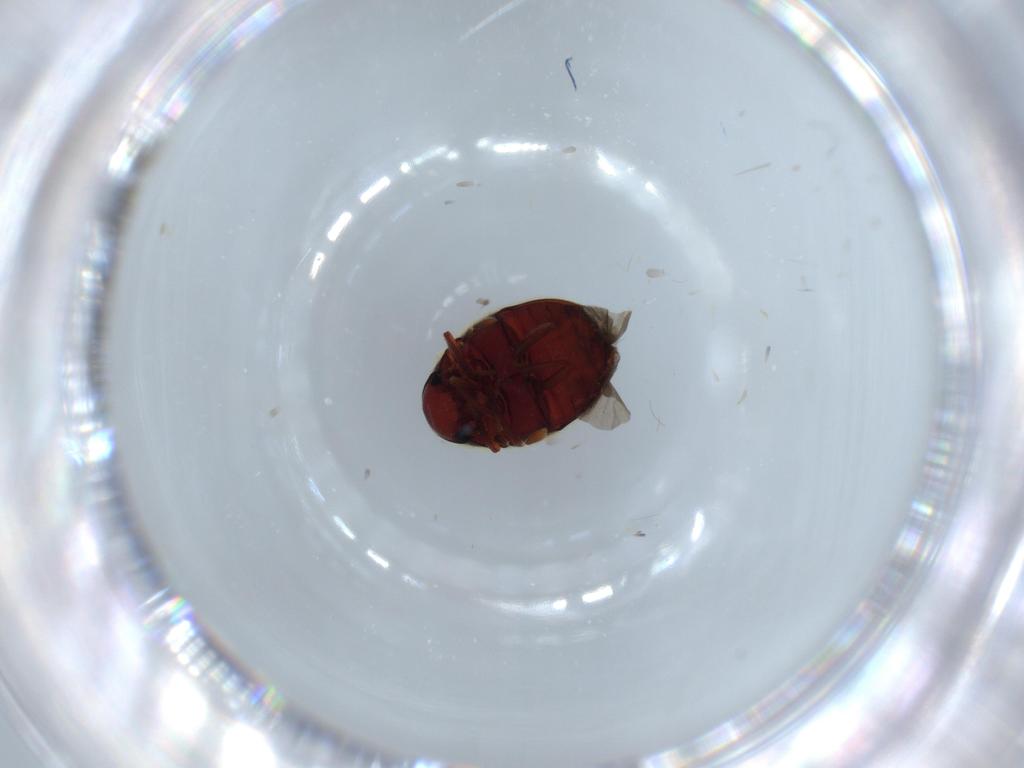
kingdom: Animalia
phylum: Arthropoda
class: Insecta
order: Coleoptera
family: Ptinidae
